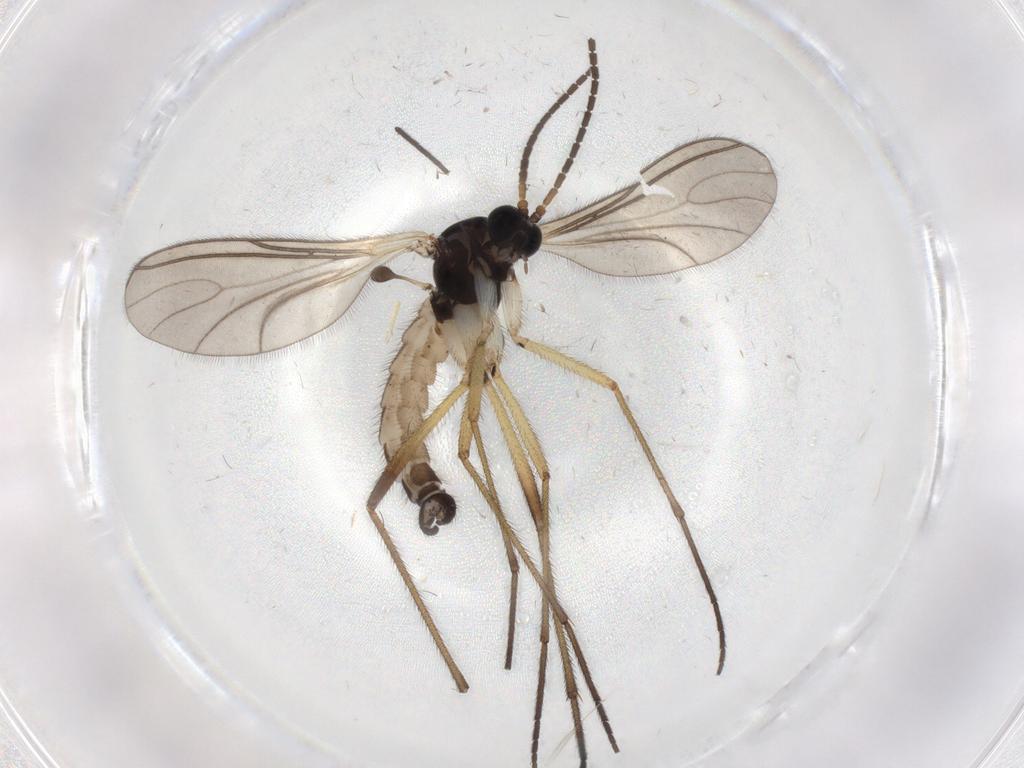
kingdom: Animalia
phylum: Arthropoda
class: Insecta
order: Diptera
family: Sciaridae
